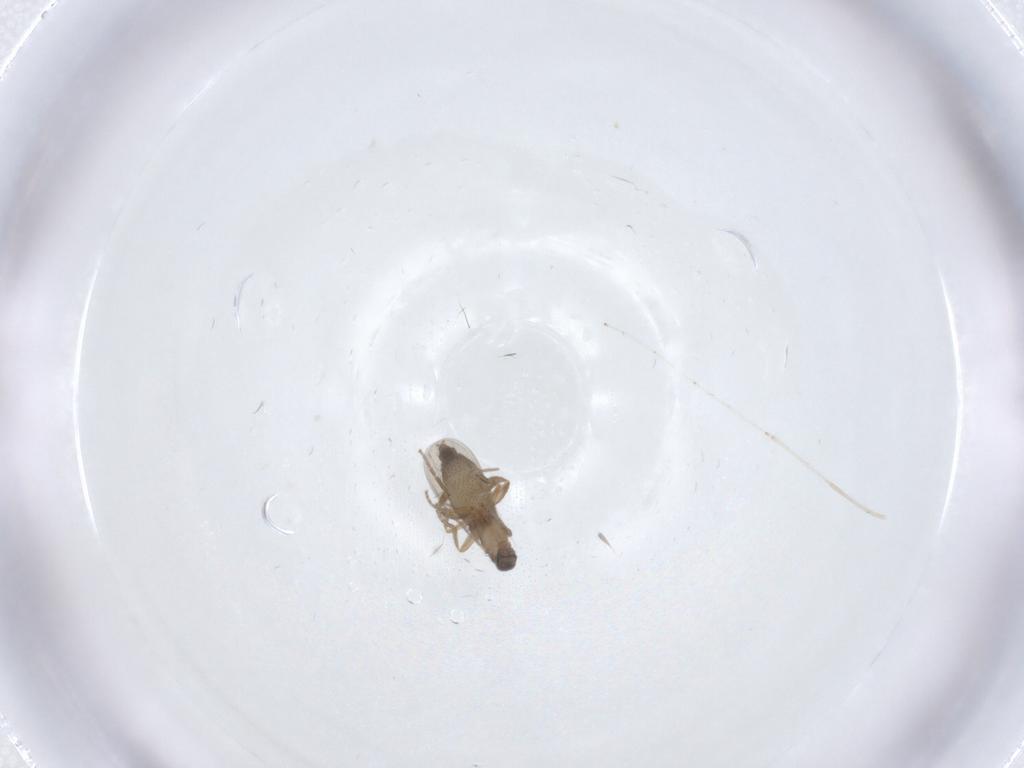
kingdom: Animalia
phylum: Arthropoda
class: Insecta
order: Diptera
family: Chironomidae
